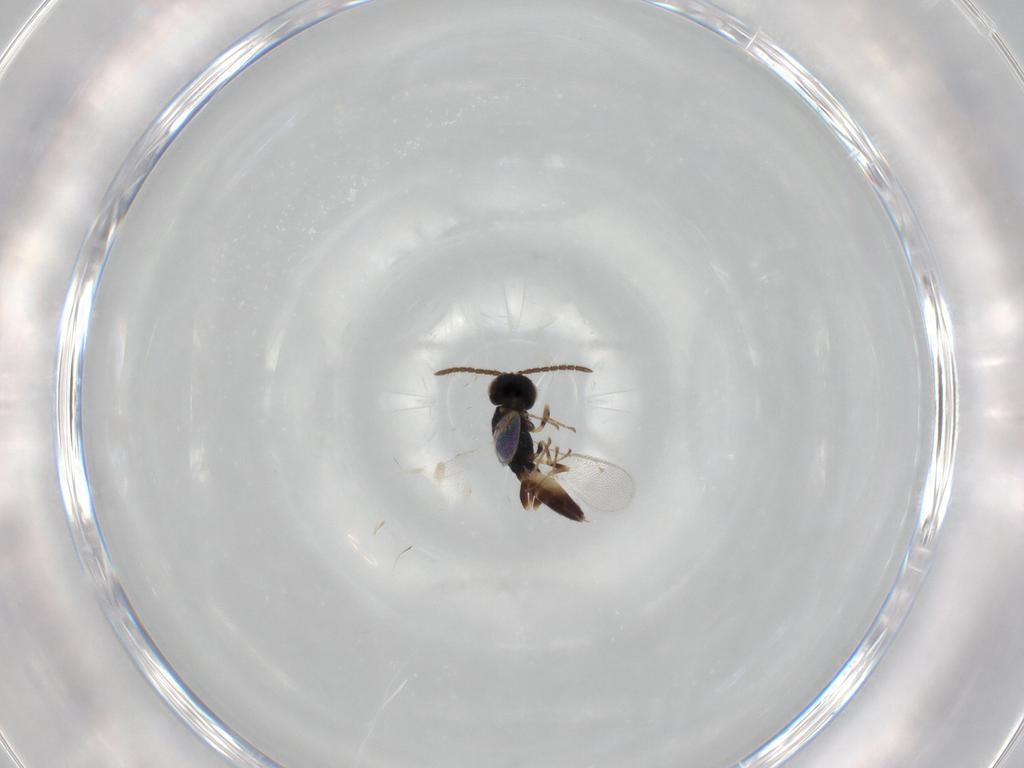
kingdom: Animalia
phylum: Arthropoda
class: Insecta
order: Hymenoptera
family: Pteromalidae
